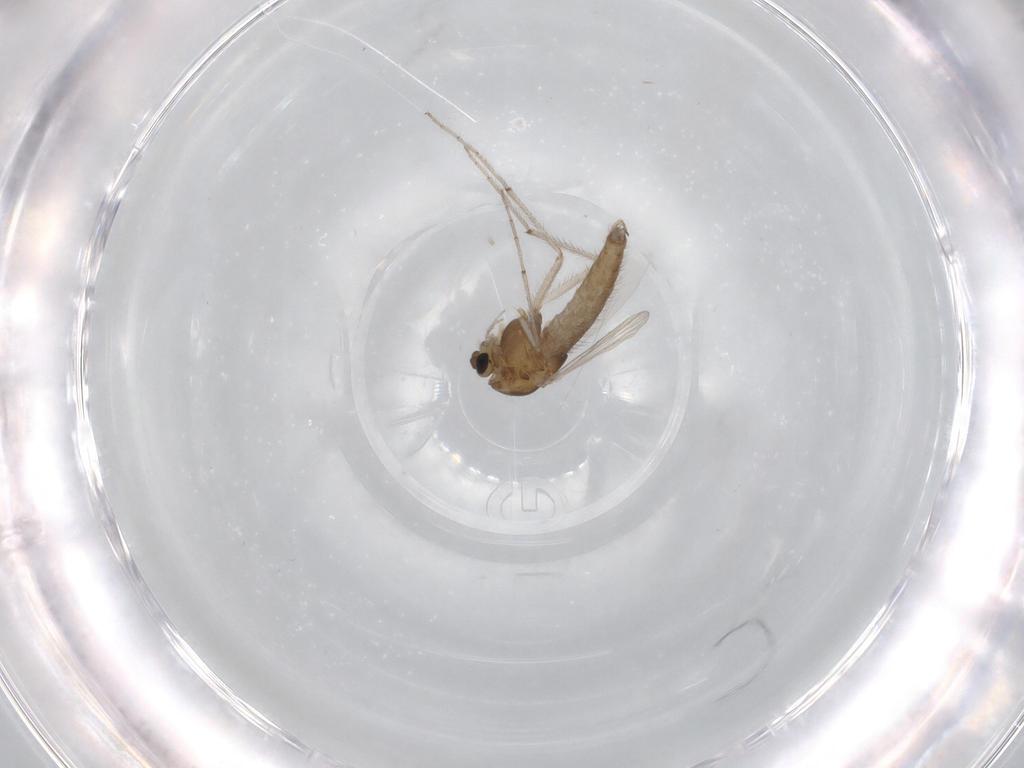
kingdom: Animalia
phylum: Arthropoda
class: Insecta
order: Diptera
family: Chironomidae
